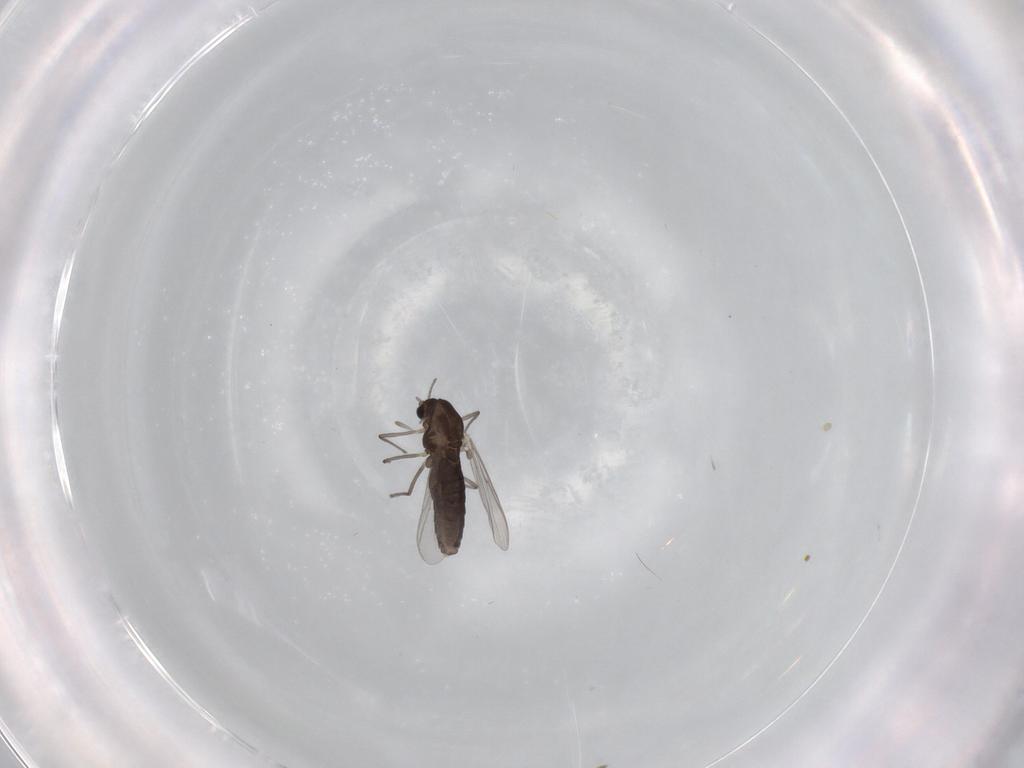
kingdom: Animalia
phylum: Arthropoda
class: Insecta
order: Diptera
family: Chironomidae
